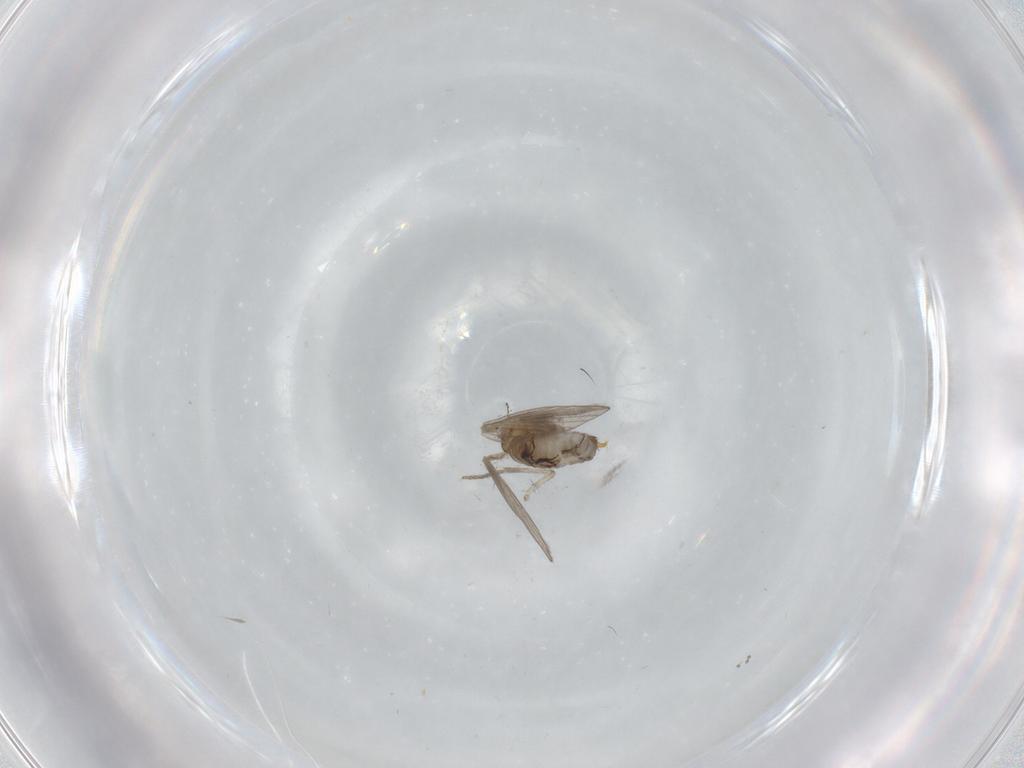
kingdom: Animalia
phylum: Arthropoda
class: Insecta
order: Diptera
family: Psychodidae
